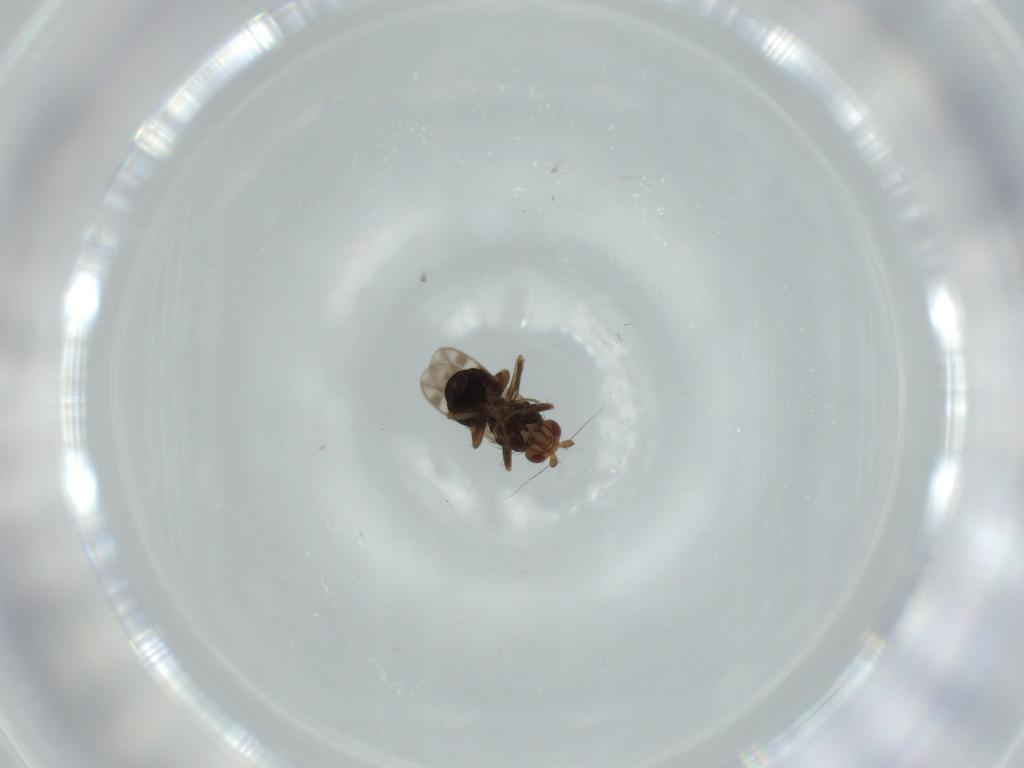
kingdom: Animalia
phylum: Arthropoda
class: Insecta
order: Diptera
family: Sphaeroceridae
